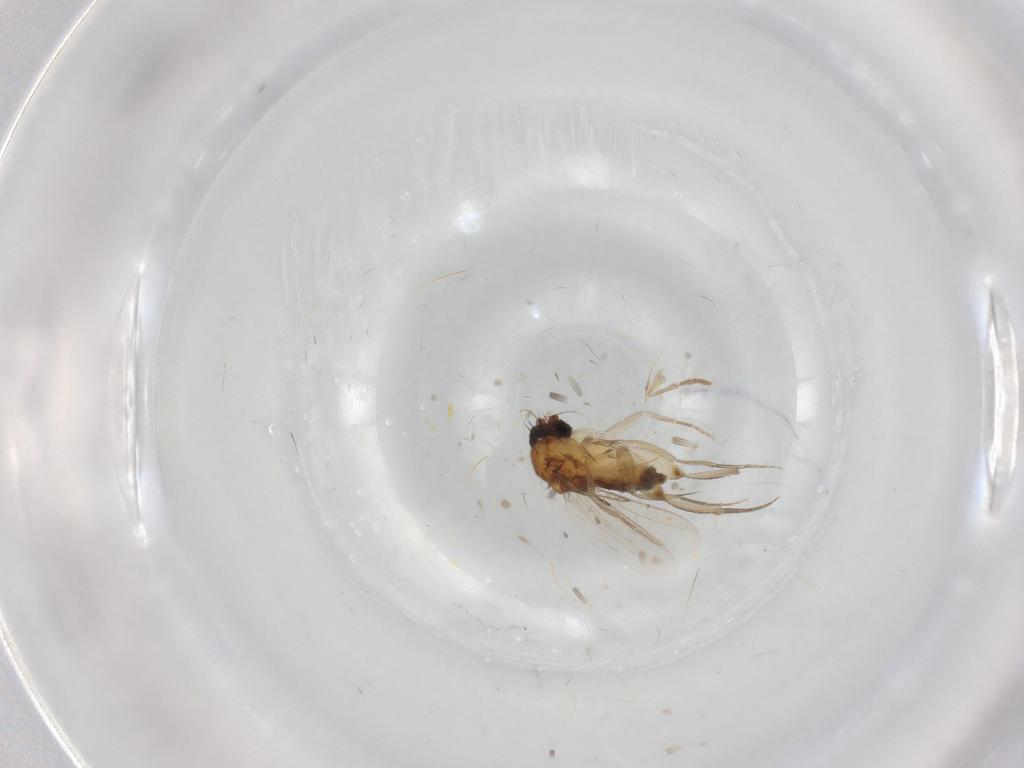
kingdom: Animalia
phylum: Arthropoda
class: Insecta
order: Diptera
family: Phoridae
